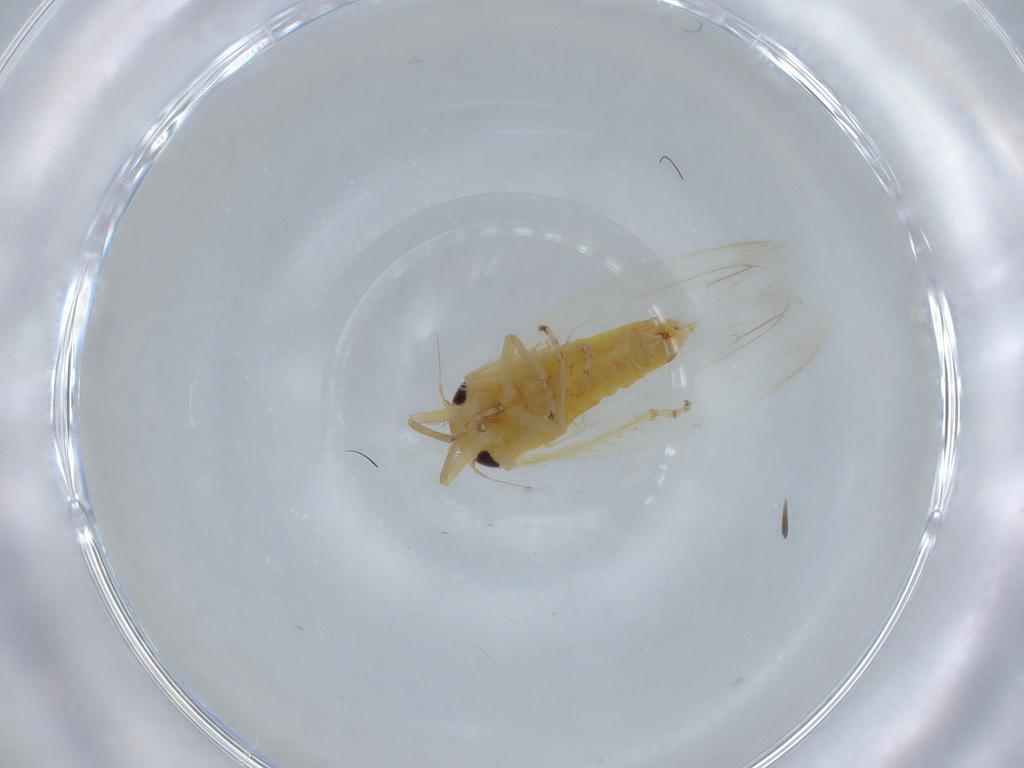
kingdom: Animalia
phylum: Arthropoda
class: Insecta
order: Hemiptera
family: Cicadellidae
